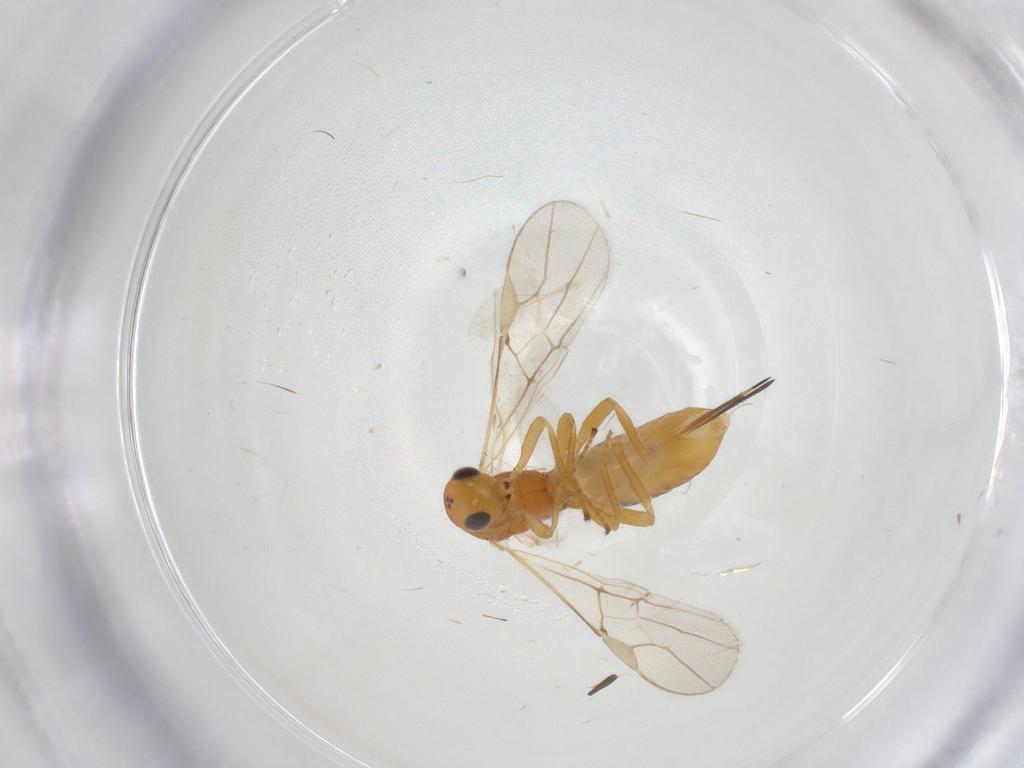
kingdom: Animalia
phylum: Arthropoda
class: Insecta
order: Hymenoptera
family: Braconidae
